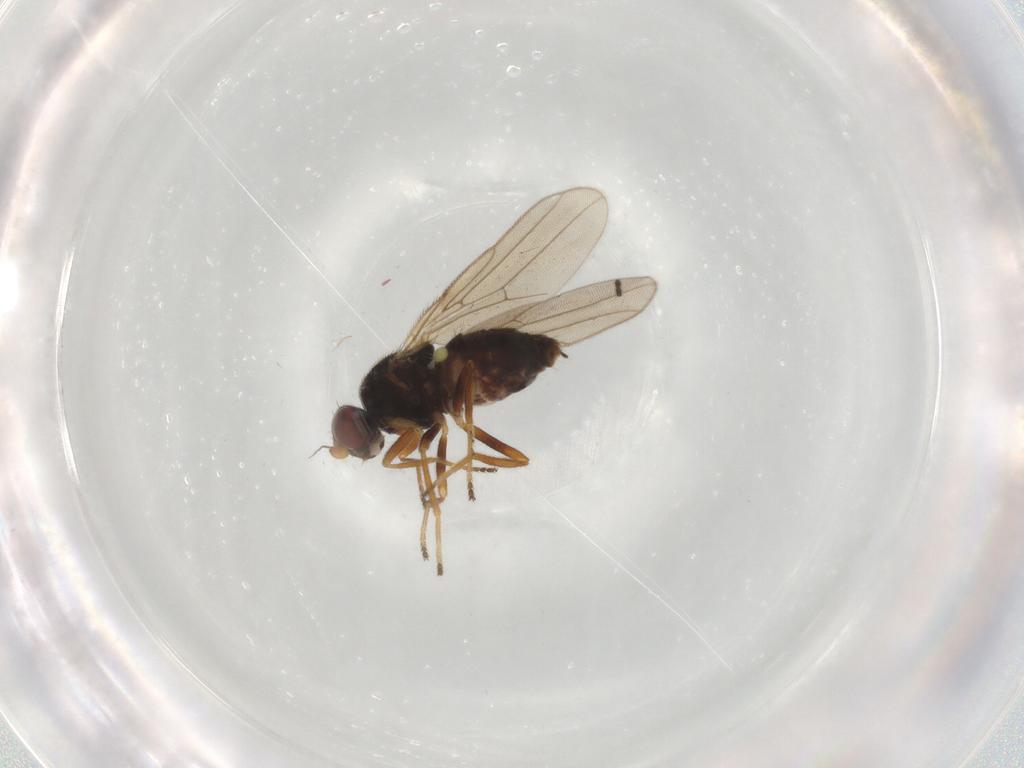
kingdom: Animalia
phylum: Arthropoda
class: Insecta
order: Diptera
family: Chloropidae
